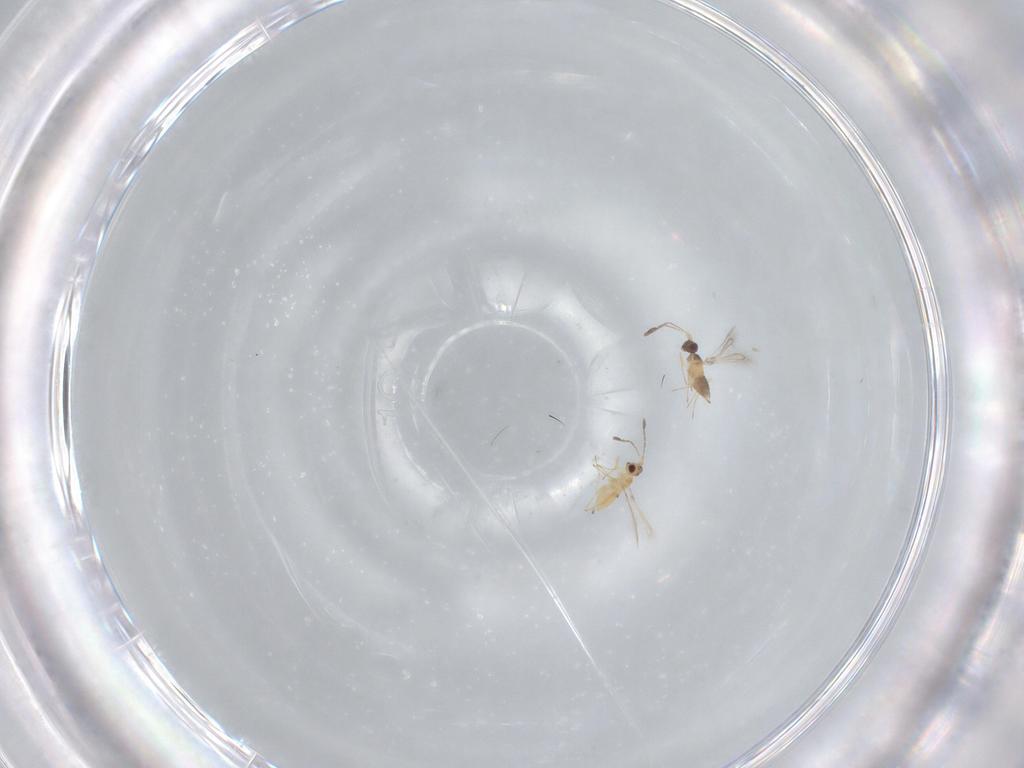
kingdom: Animalia
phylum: Arthropoda
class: Insecta
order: Hymenoptera
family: Mymaridae
